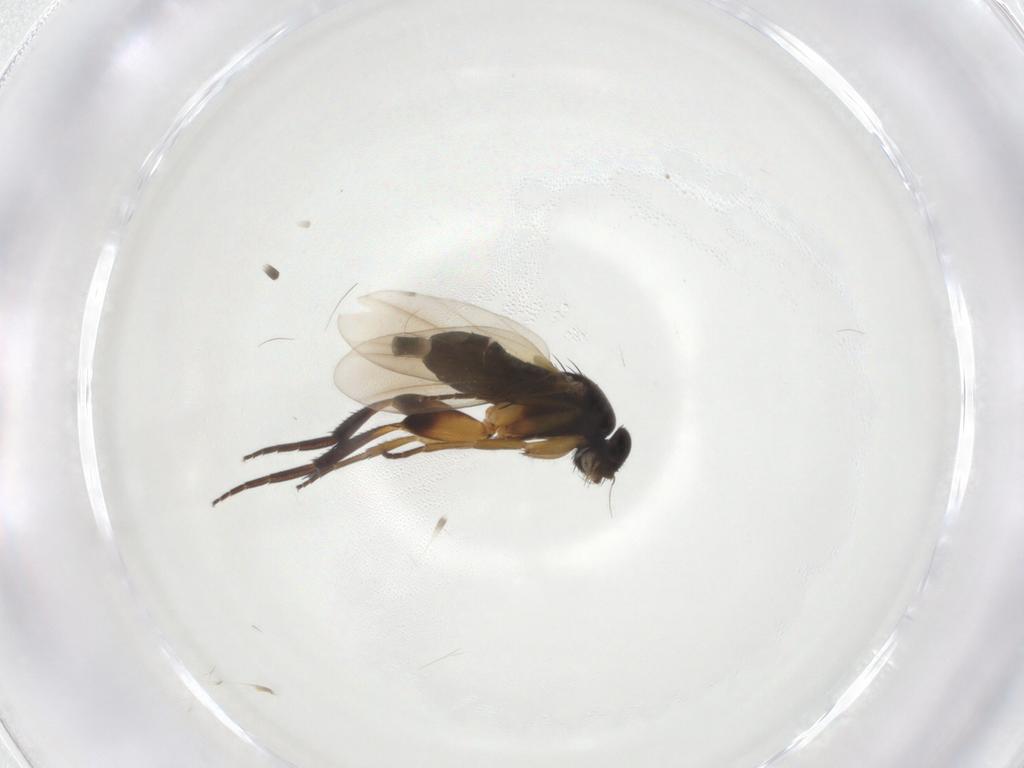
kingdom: Animalia
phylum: Arthropoda
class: Insecta
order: Diptera
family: Phoridae
